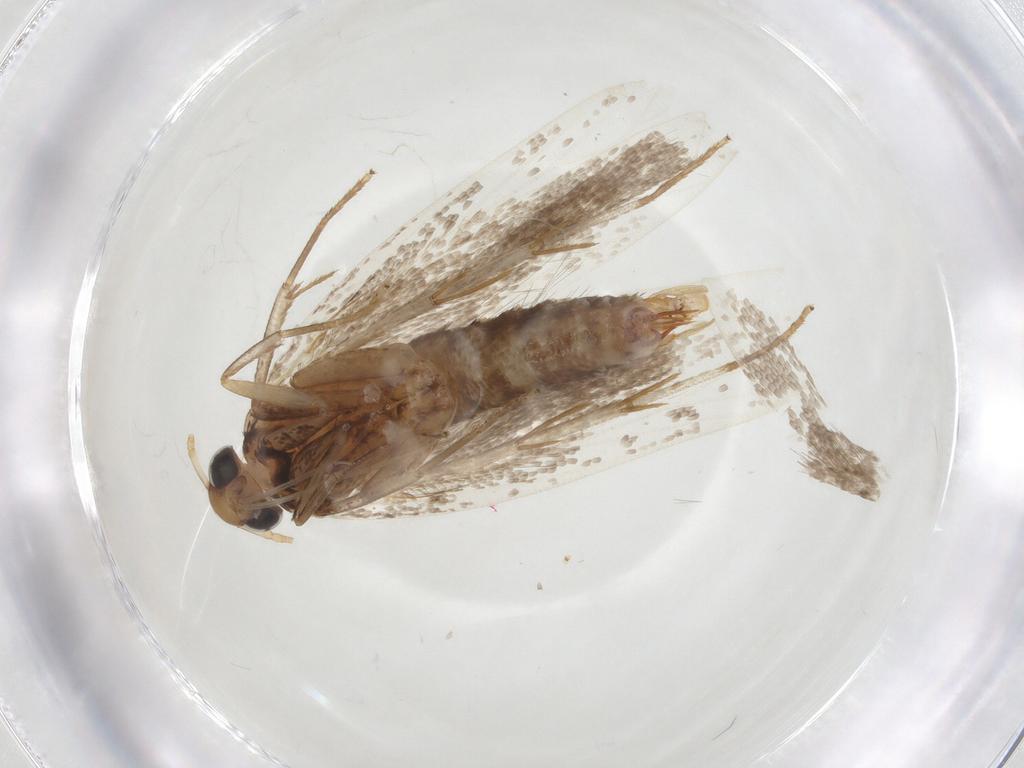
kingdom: Animalia
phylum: Arthropoda
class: Insecta
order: Lepidoptera
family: Gelechiidae
